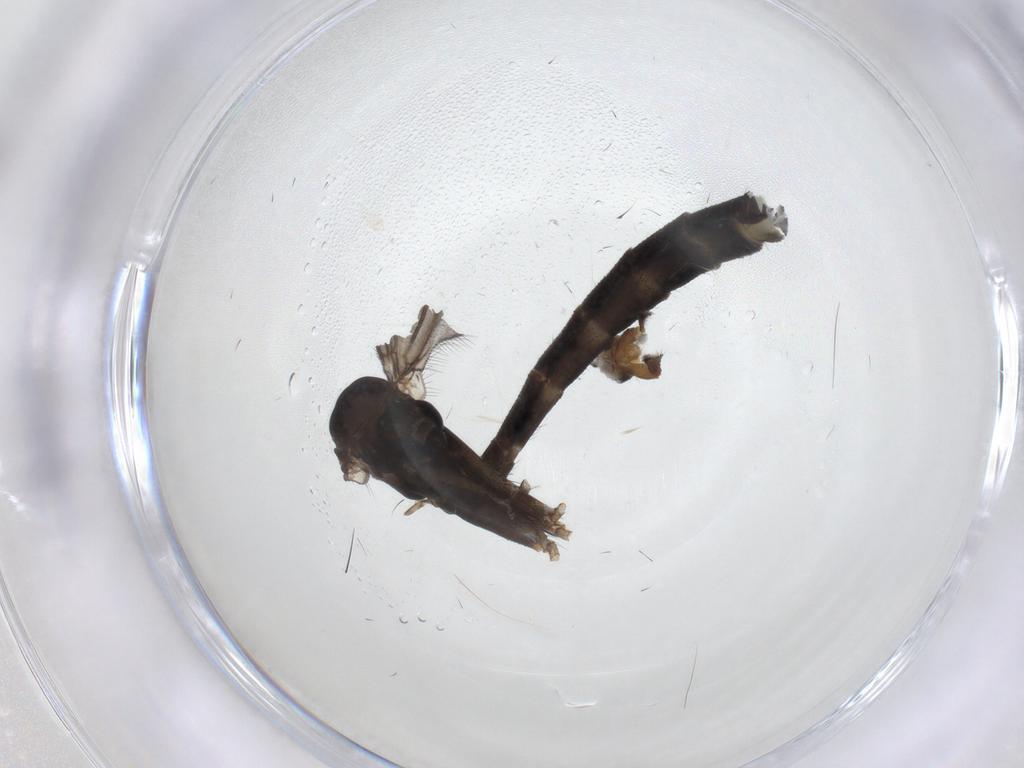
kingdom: Animalia
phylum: Arthropoda
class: Insecta
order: Diptera
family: Tachinidae
